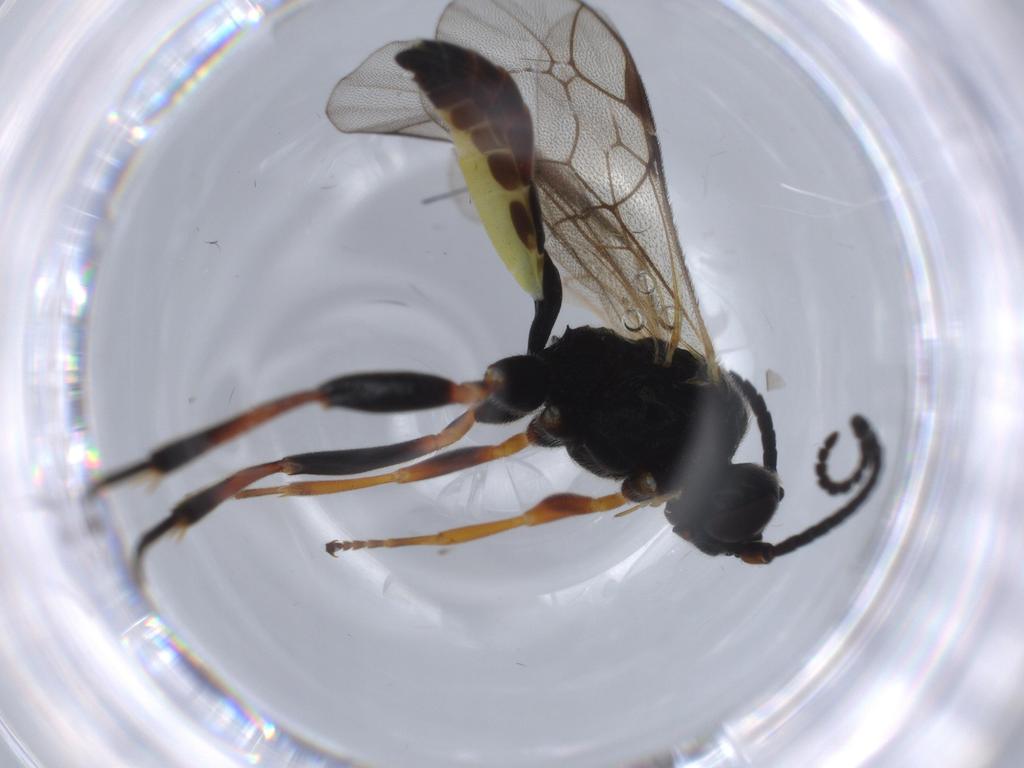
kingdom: Animalia
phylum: Arthropoda
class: Insecta
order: Hymenoptera
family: Ichneumonidae
